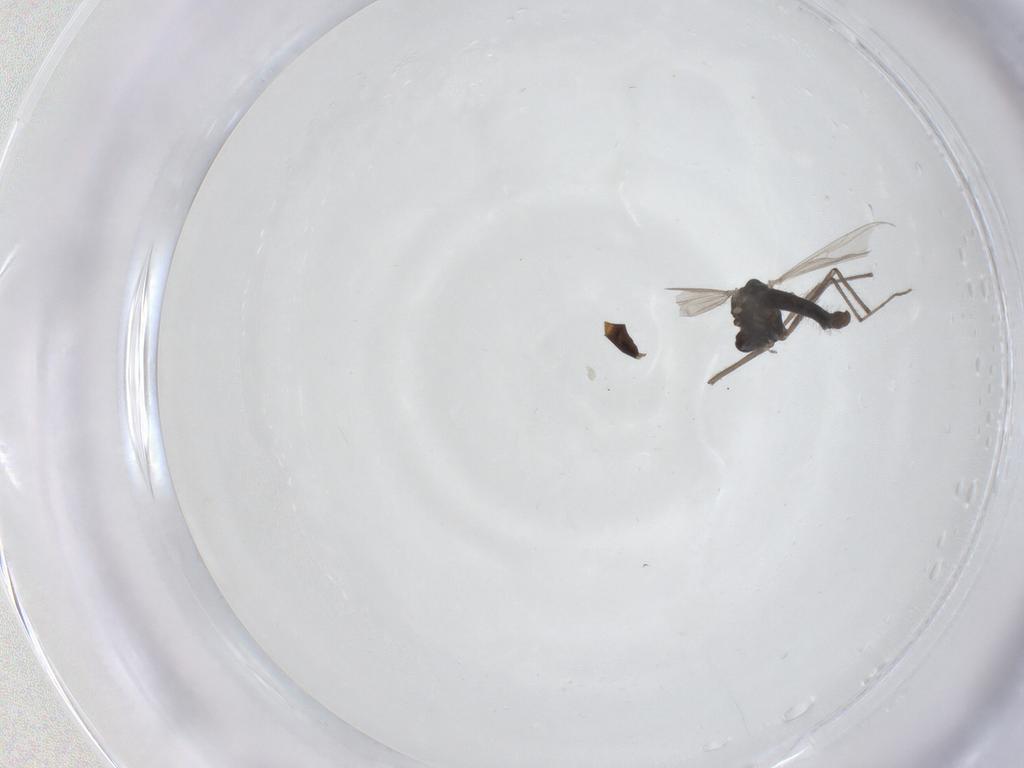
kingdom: Animalia
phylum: Arthropoda
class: Insecta
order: Diptera
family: Chironomidae
